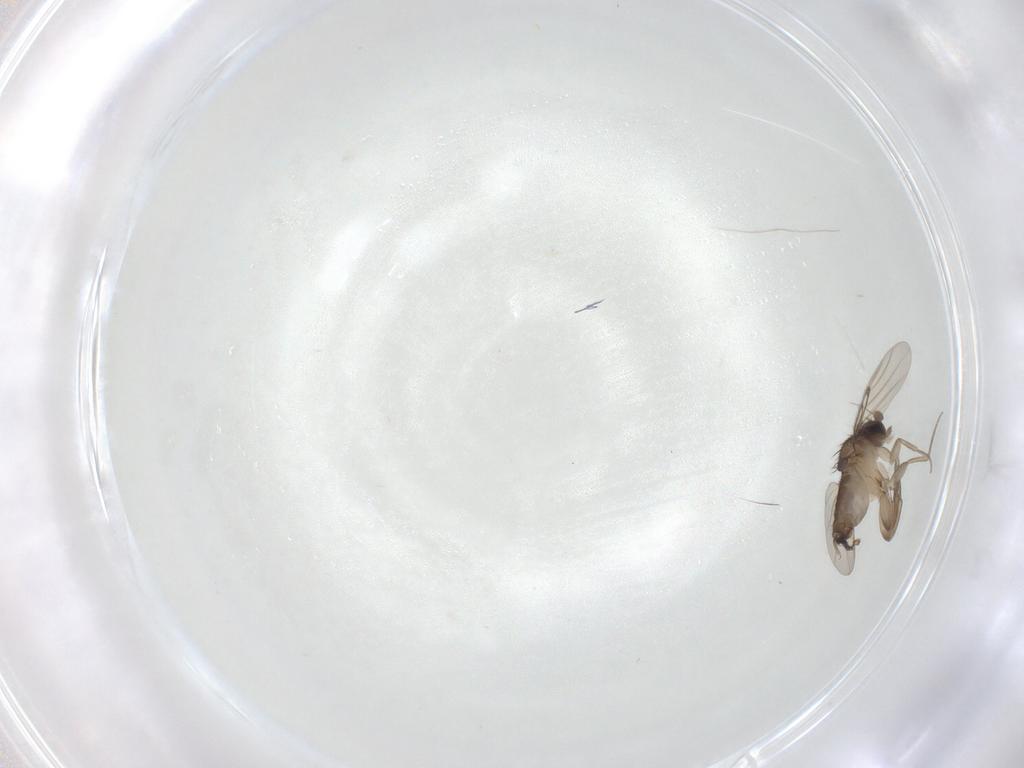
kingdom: Animalia
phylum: Arthropoda
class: Insecta
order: Diptera
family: Phoridae
